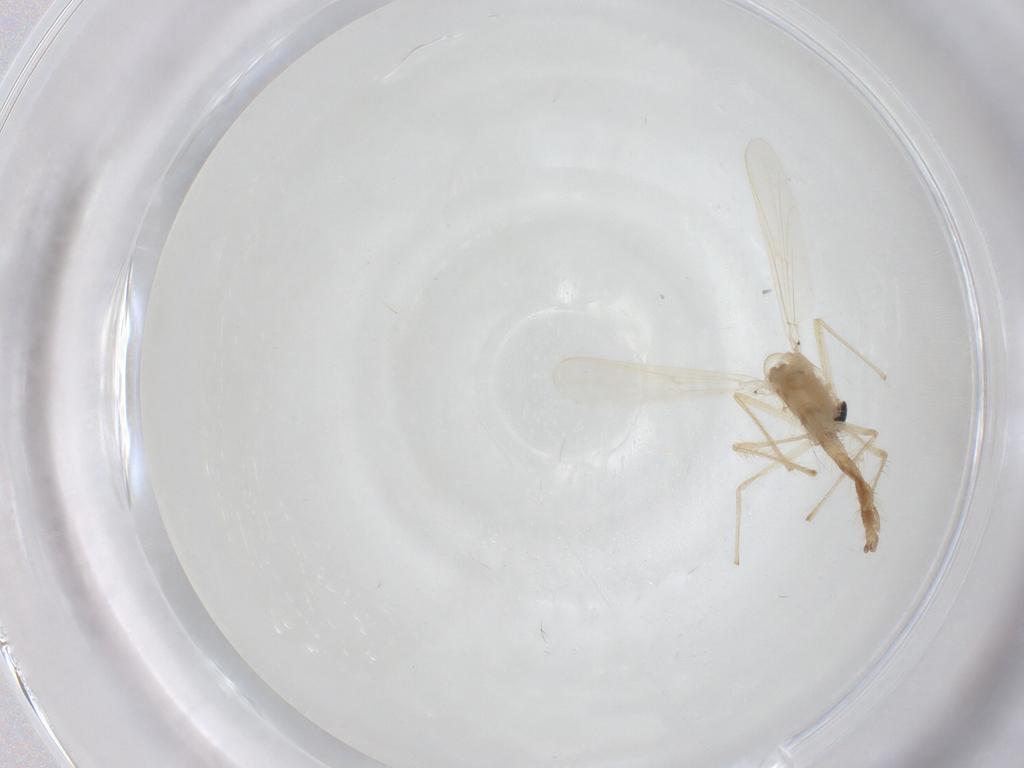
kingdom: Animalia
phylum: Arthropoda
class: Insecta
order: Diptera
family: Chironomidae
